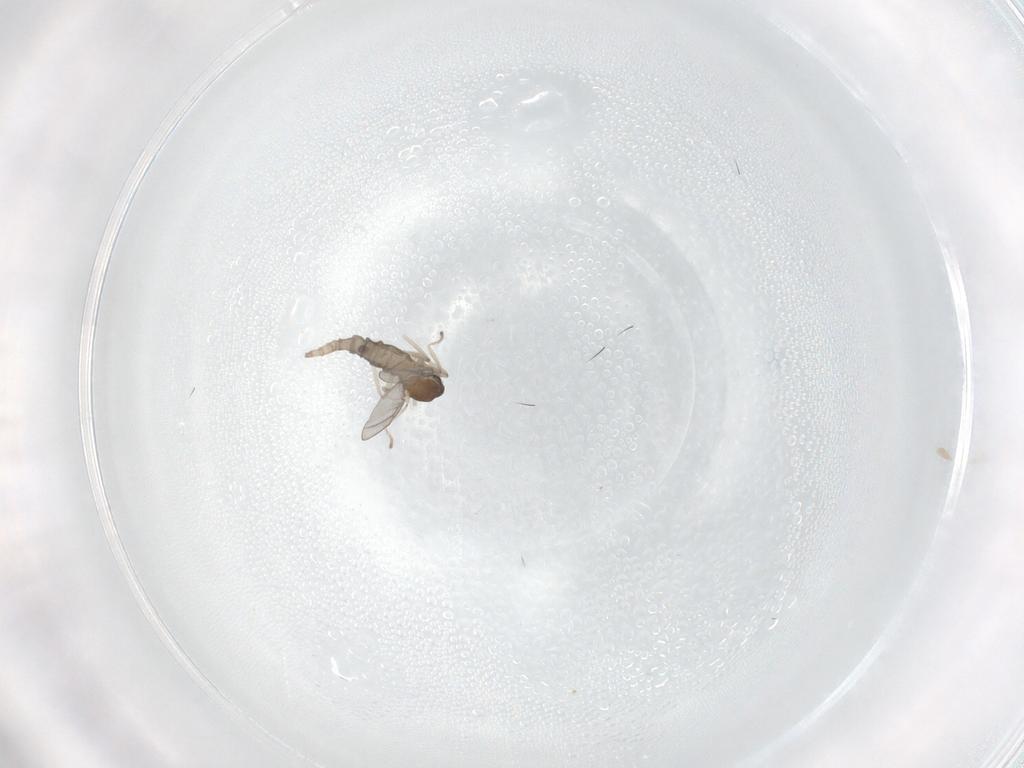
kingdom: Animalia
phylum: Arthropoda
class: Insecta
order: Diptera
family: Cecidomyiidae
